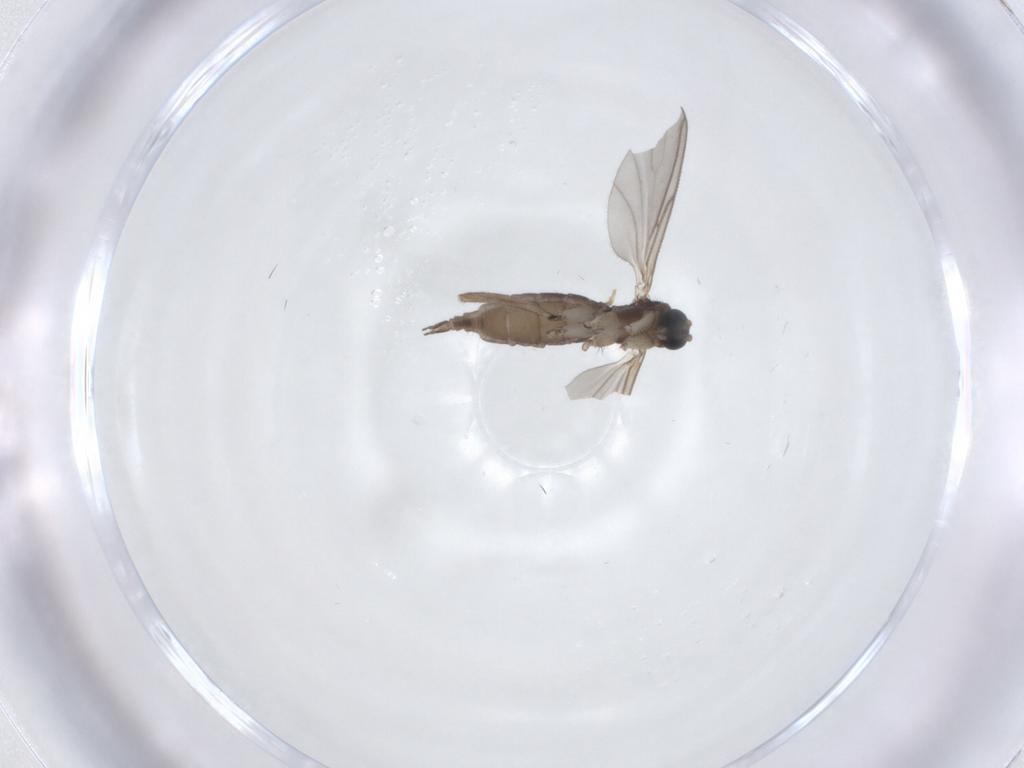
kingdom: Animalia
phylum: Arthropoda
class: Insecta
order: Diptera
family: Sciaridae
